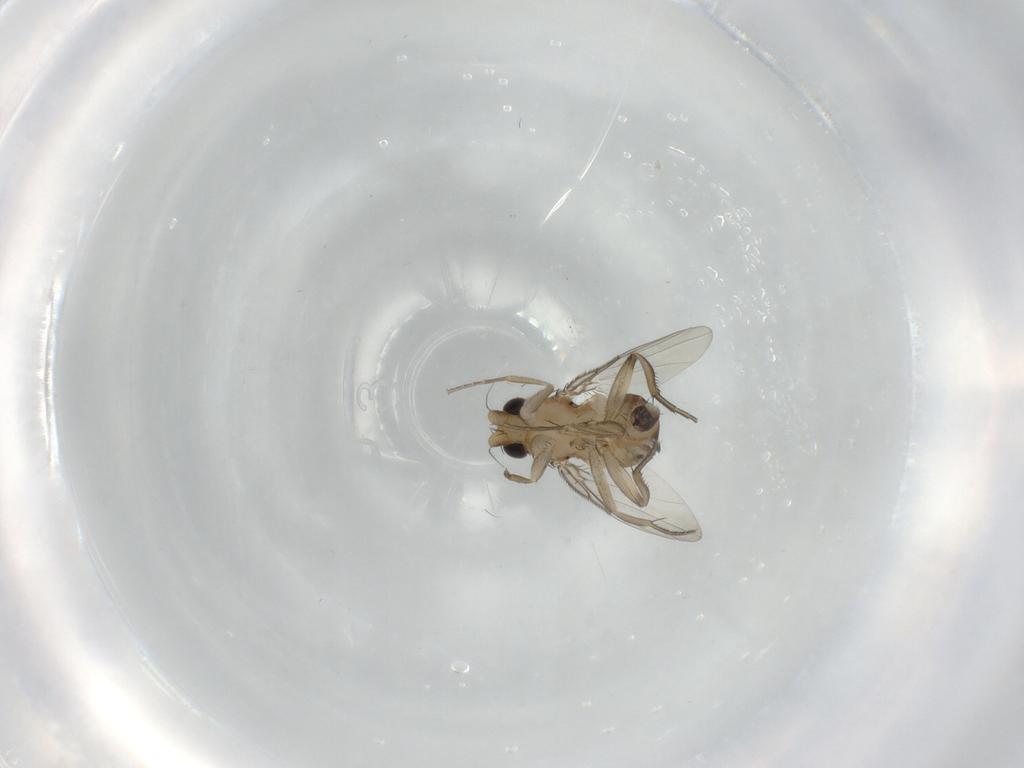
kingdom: Animalia
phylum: Arthropoda
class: Insecta
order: Diptera
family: Phoridae
